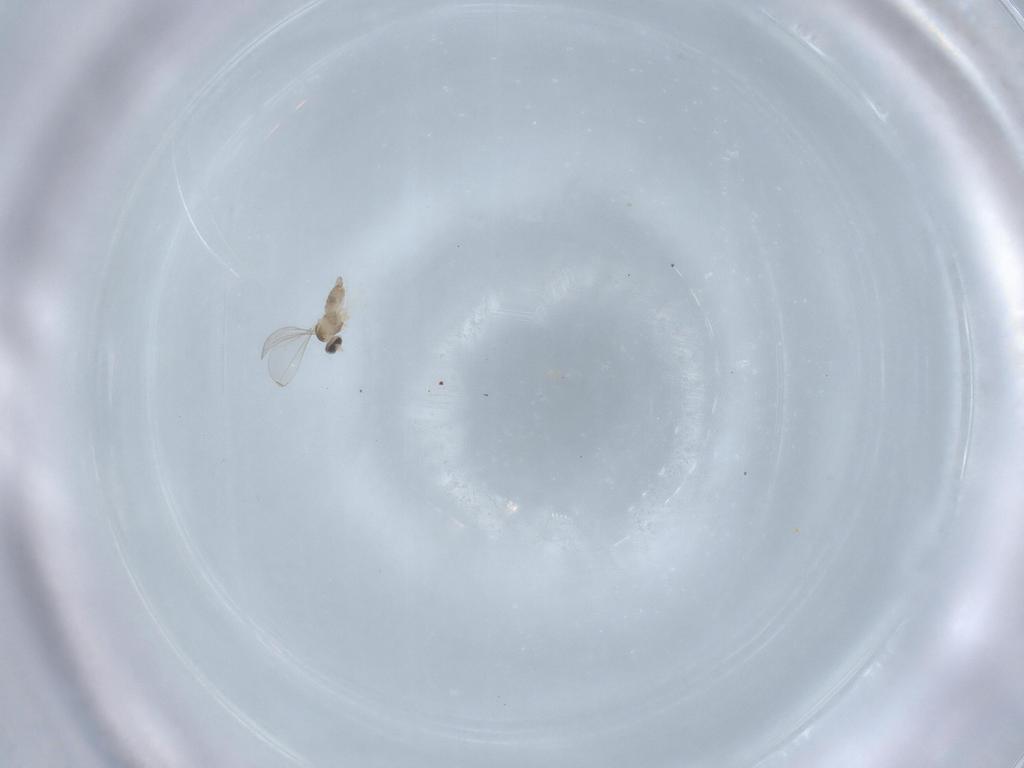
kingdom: Animalia
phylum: Arthropoda
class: Insecta
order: Diptera
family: Cecidomyiidae
